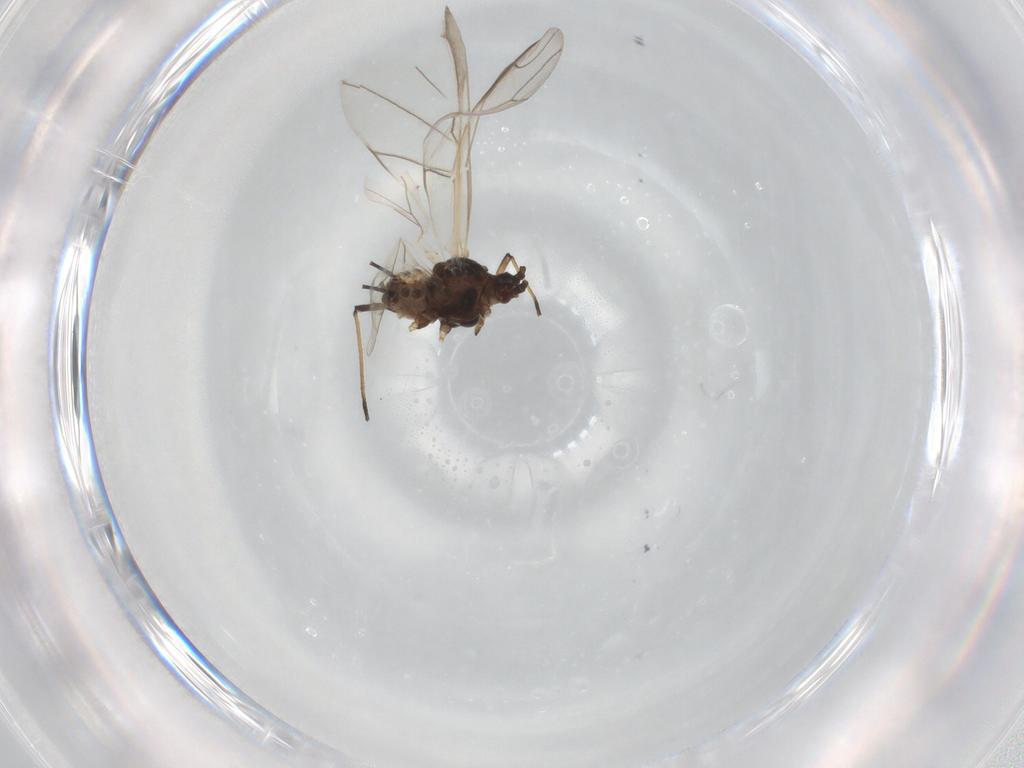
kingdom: Animalia
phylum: Arthropoda
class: Insecta
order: Hemiptera
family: Aphididae
